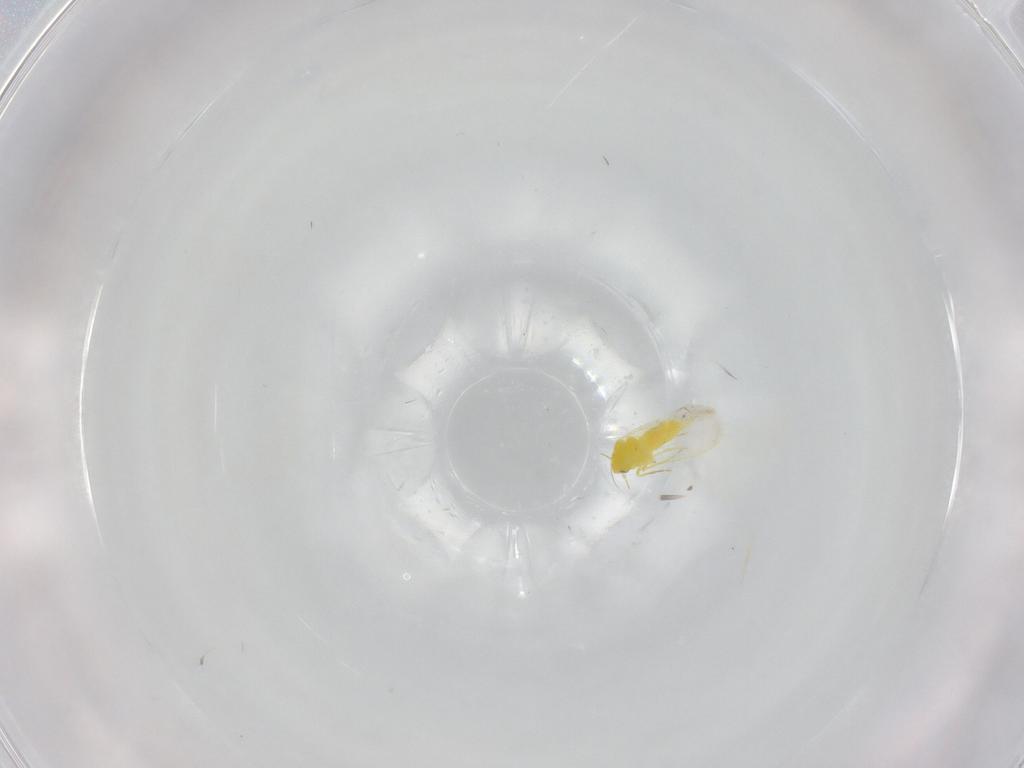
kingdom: Animalia
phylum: Arthropoda
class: Insecta
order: Hemiptera
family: Aleyrodidae
